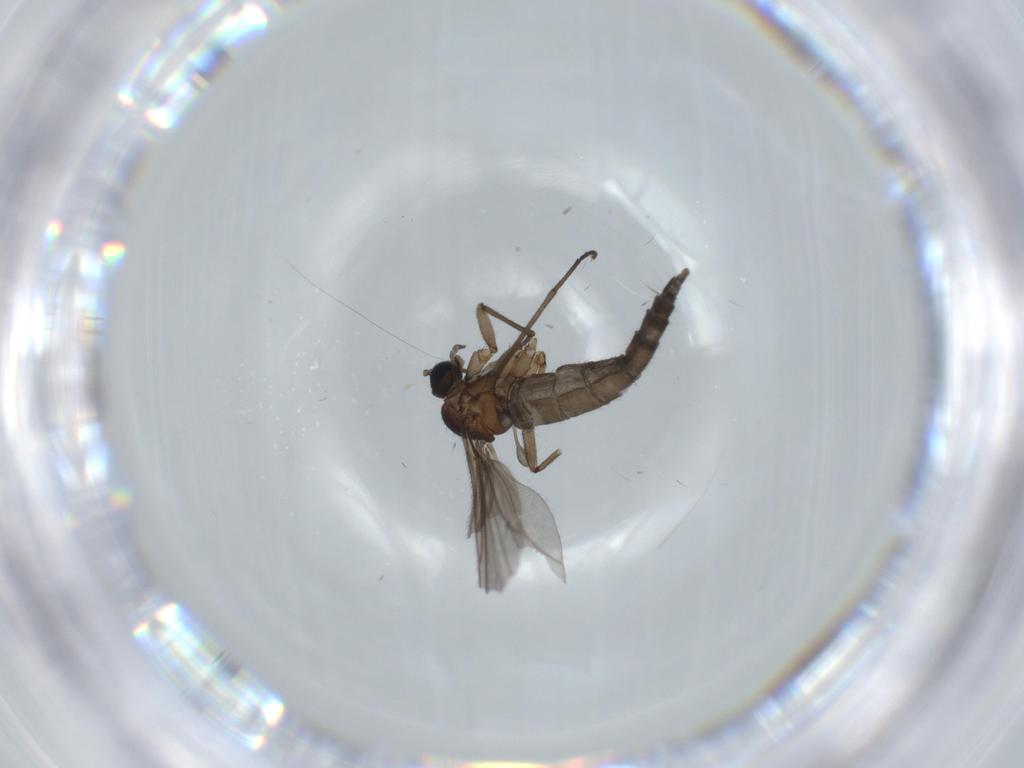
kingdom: Animalia
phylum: Arthropoda
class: Insecta
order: Diptera
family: Sciaridae
